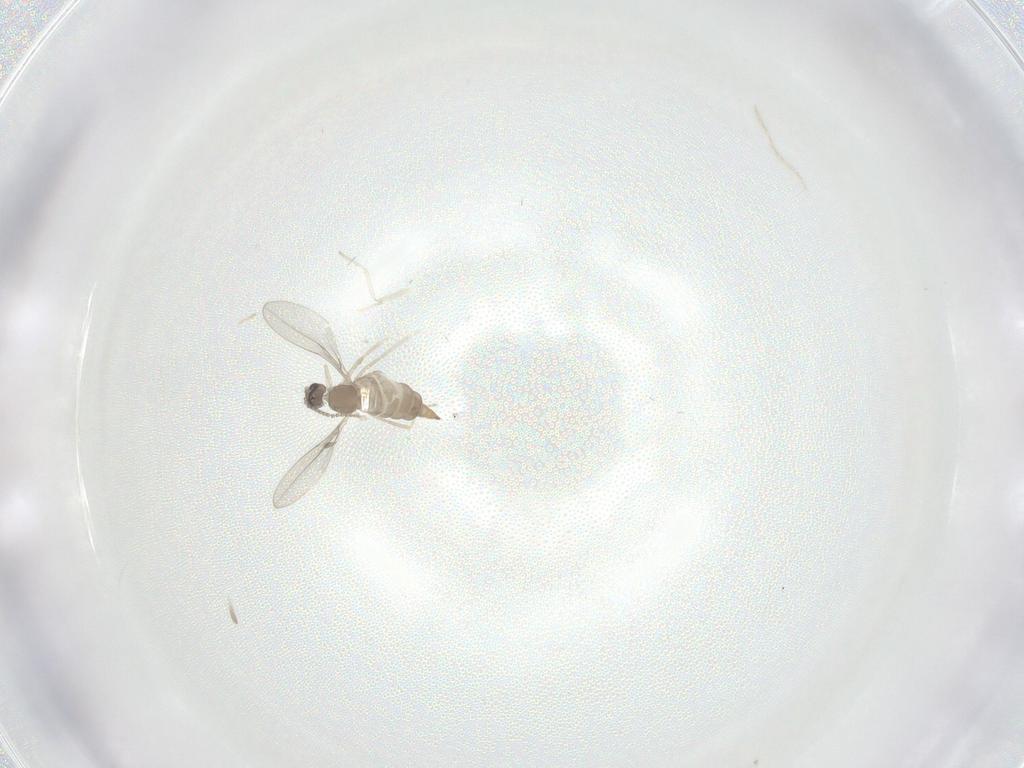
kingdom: Animalia
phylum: Arthropoda
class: Insecta
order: Diptera
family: Cecidomyiidae
